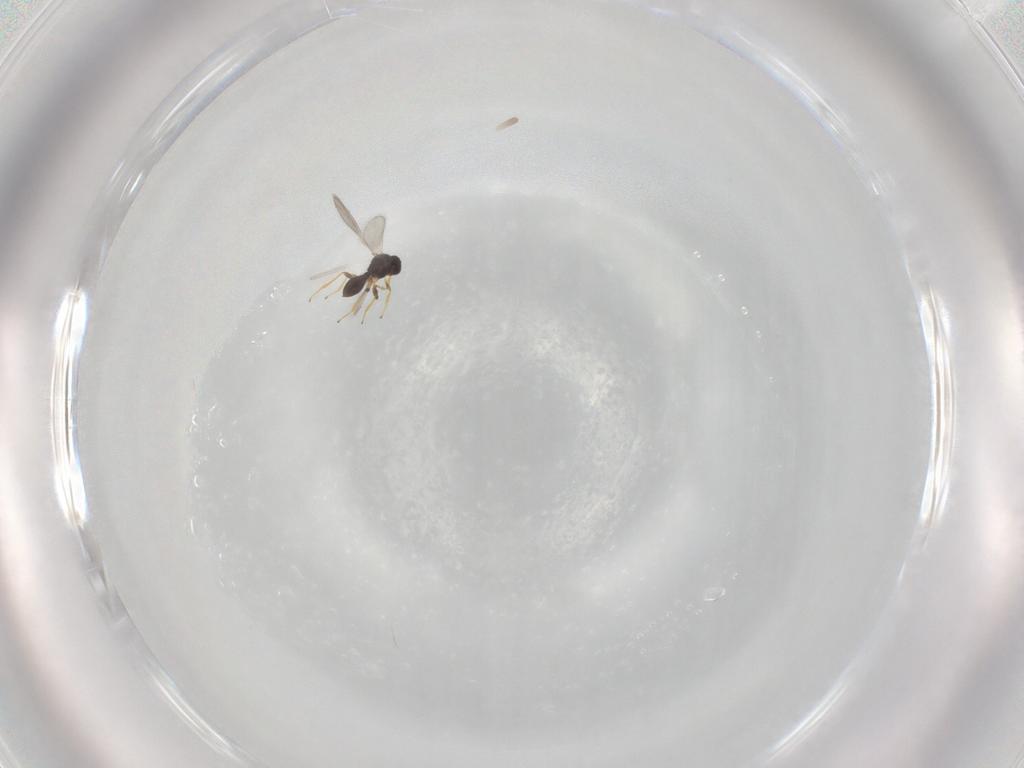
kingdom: Animalia
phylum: Arthropoda
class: Insecta
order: Hymenoptera
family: Platygastridae
